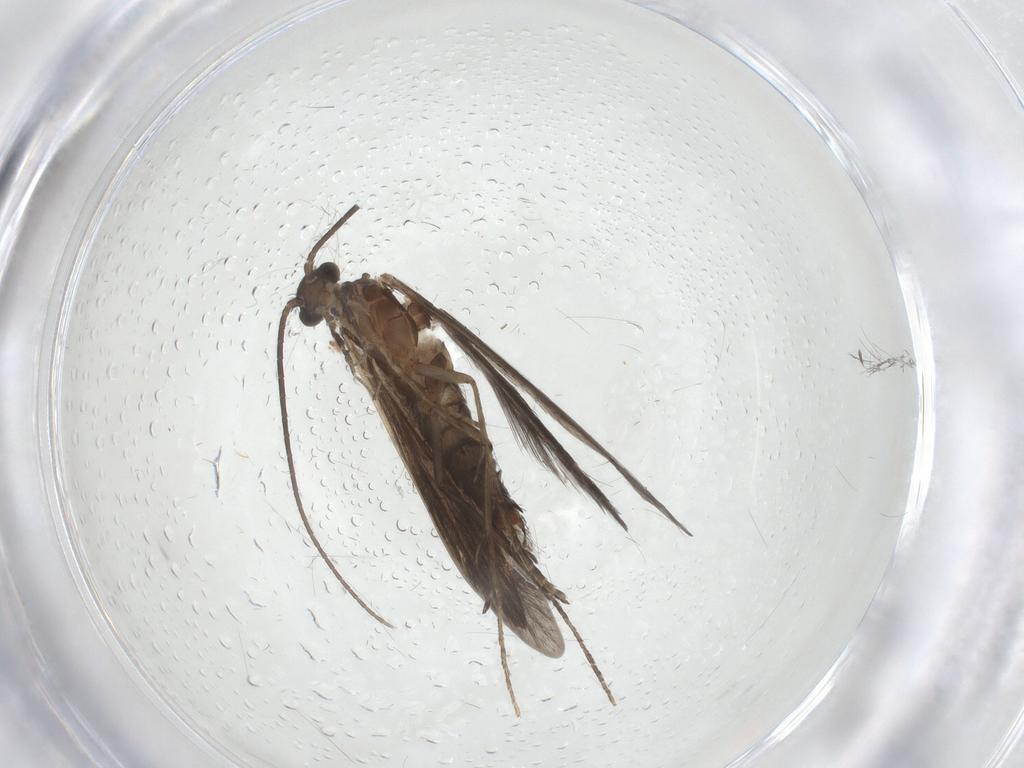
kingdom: Animalia
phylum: Arthropoda
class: Insecta
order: Trichoptera
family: Xiphocentronidae
